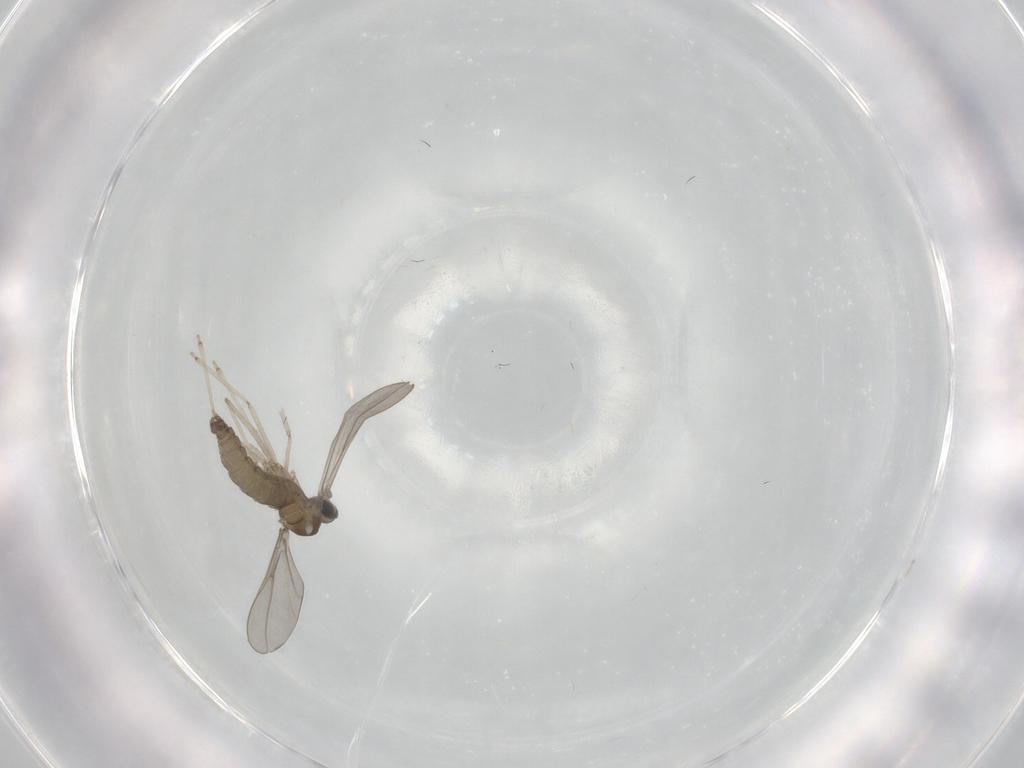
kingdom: Animalia
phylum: Arthropoda
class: Insecta
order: Diptera
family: Cecidomyiidae
